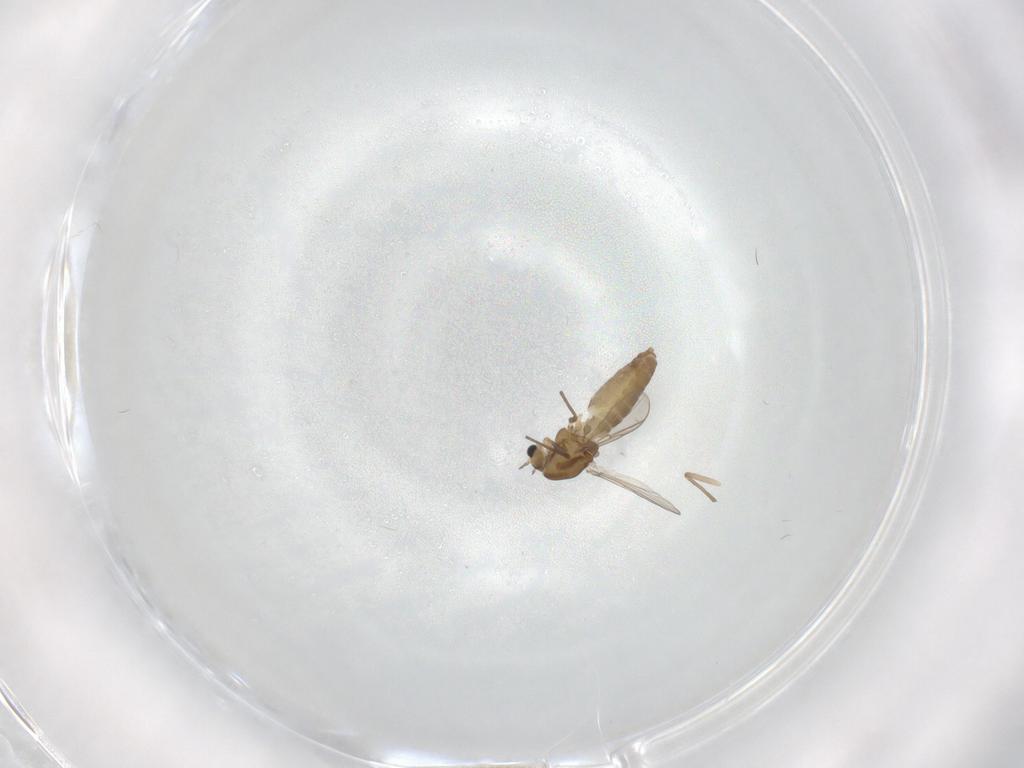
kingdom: Animalia
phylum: Arthropoda
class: Insecta
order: Diptera
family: Chironomidae
